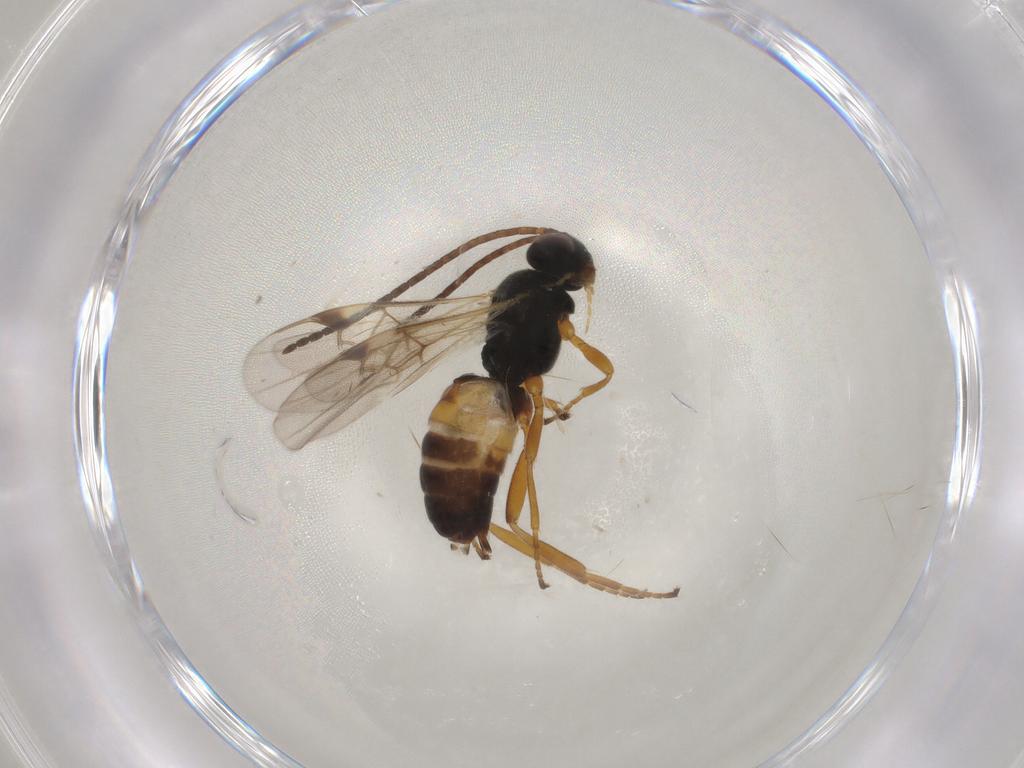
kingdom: Animalia
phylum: Arthropoda
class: Insecta
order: Hymenoptera
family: Braconidae
